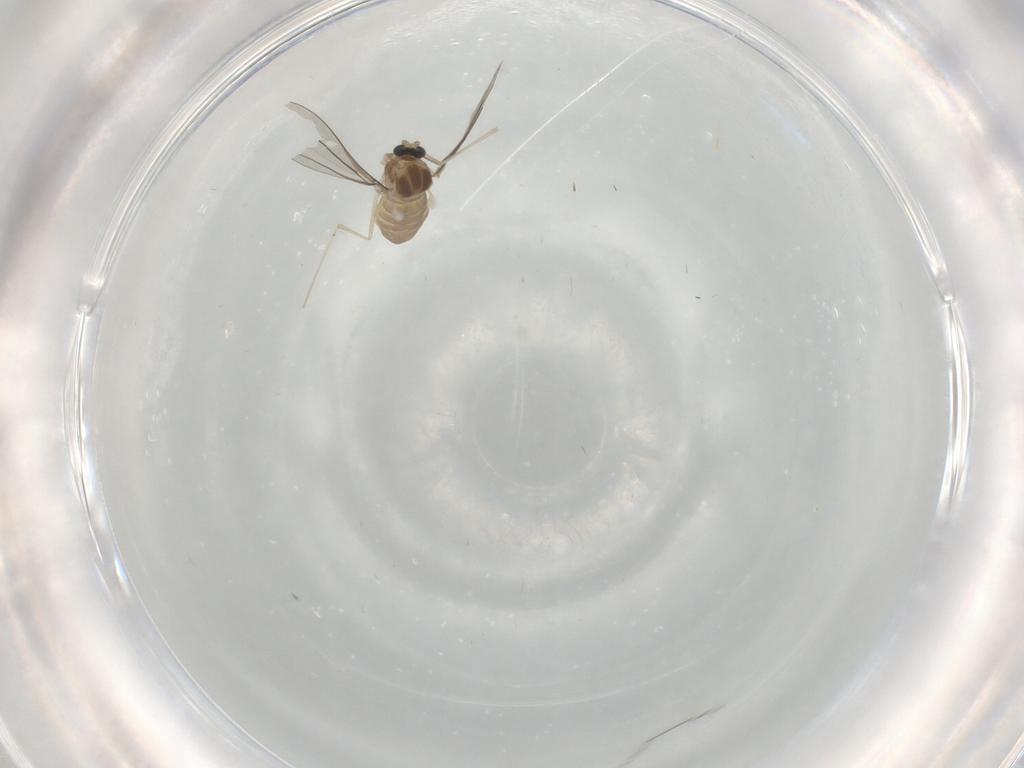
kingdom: Animalia
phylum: Arthropoda
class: Insecta
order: Diptera
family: Cecidomyiidae
